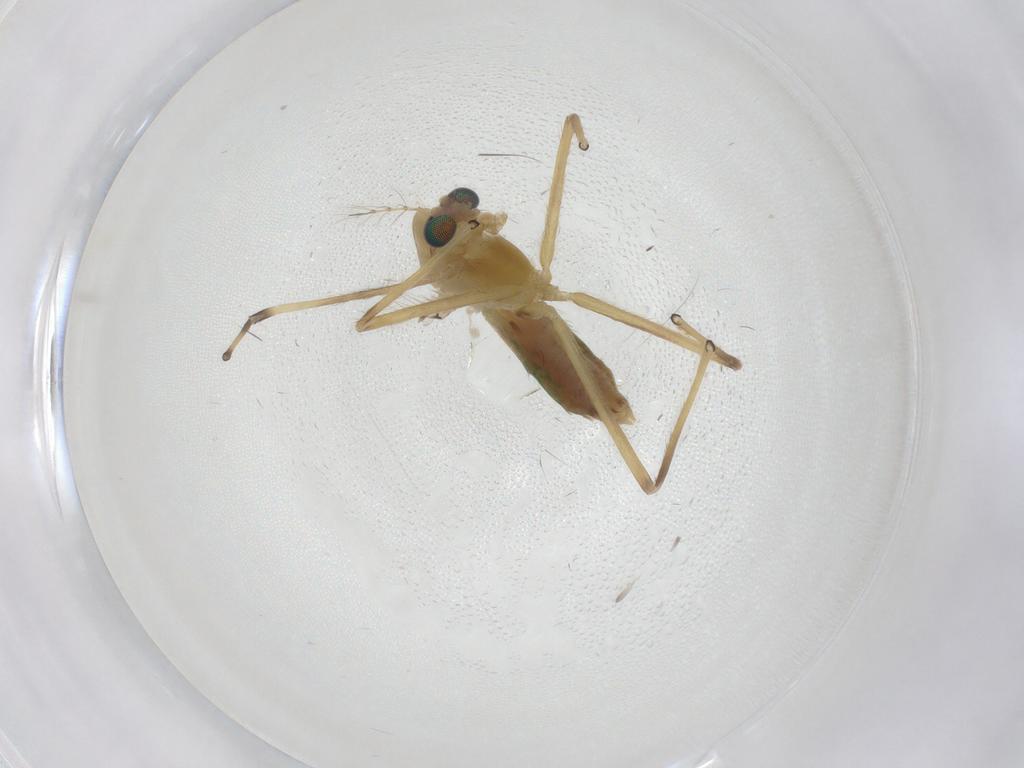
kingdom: Animalia
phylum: Arthropoda
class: Insecta
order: Diptera
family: Chironomidae
